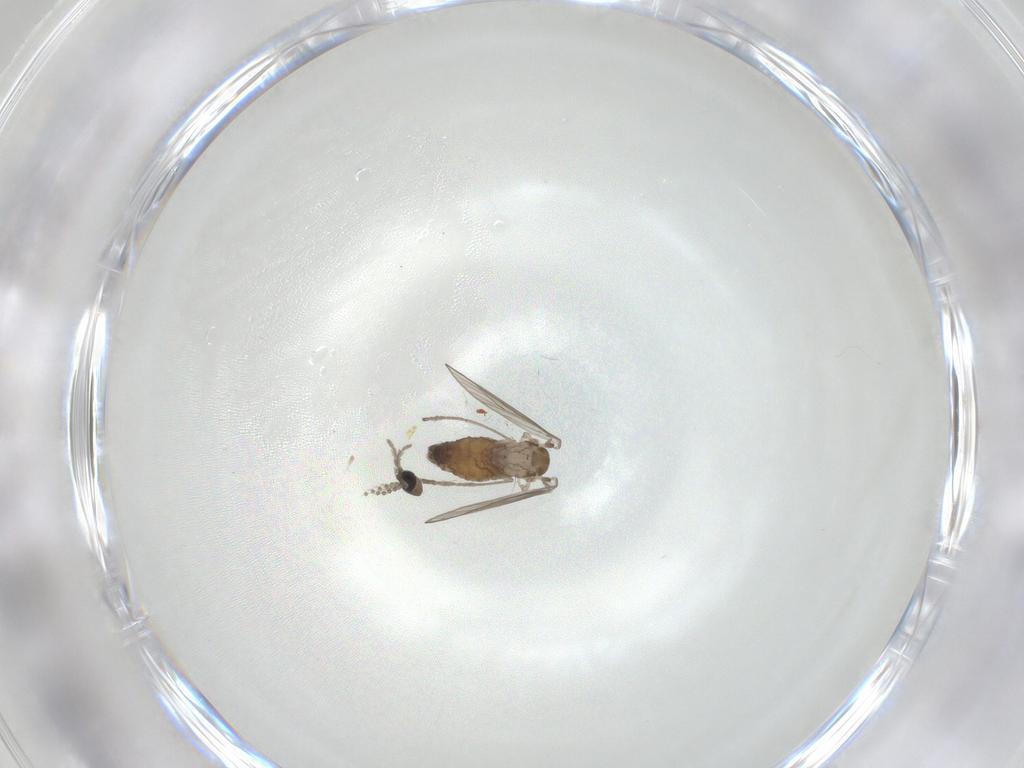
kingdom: Animalia
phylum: Arthropoda
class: Insecta
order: Diptera
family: Psychodidae
